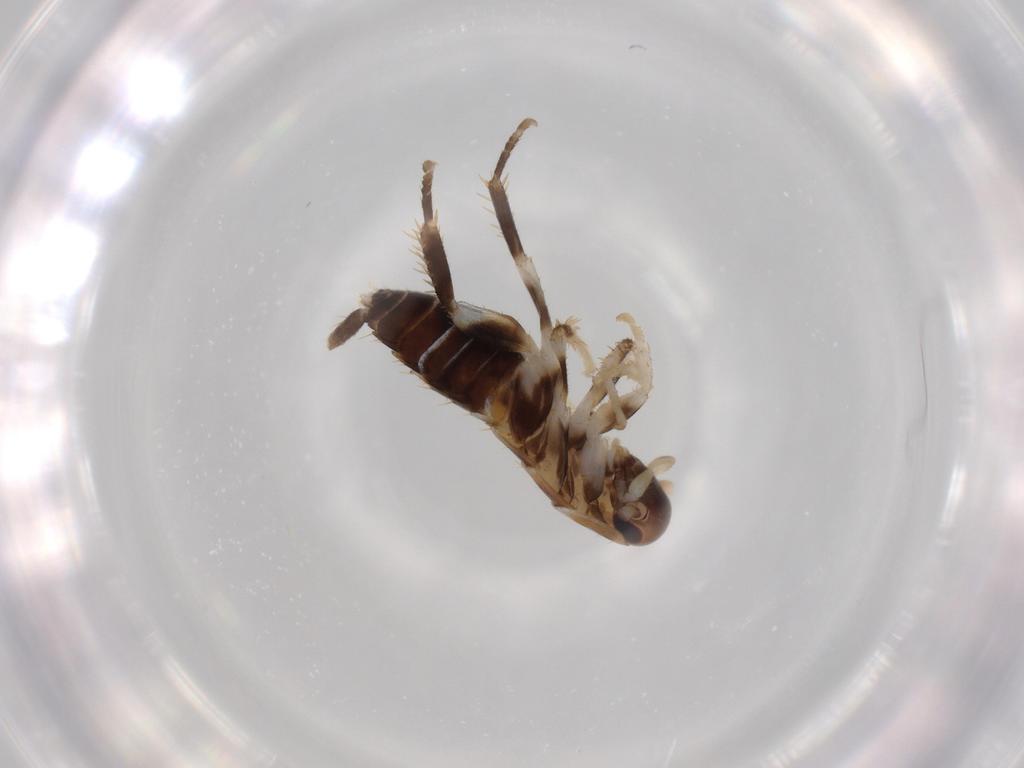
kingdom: Animalia
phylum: Arthropoda
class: Insecta
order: Blattodea
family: Ectobiidae
